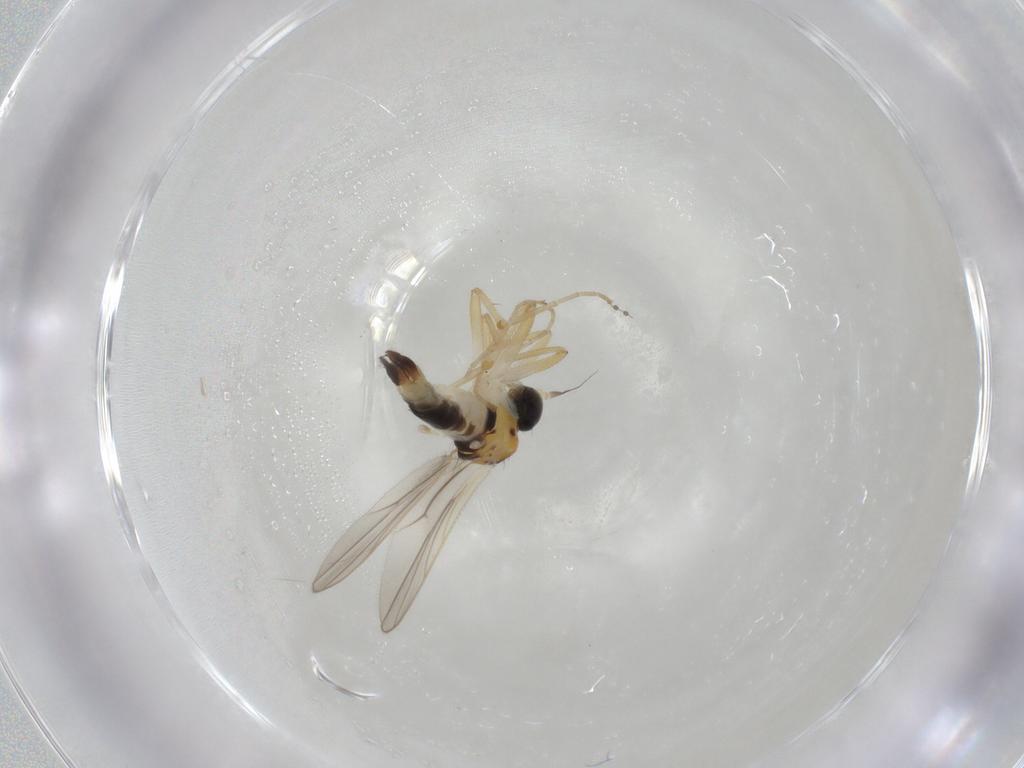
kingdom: Animalia
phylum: Arthropoda
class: Insecta
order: Diptera
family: Hybotidae
